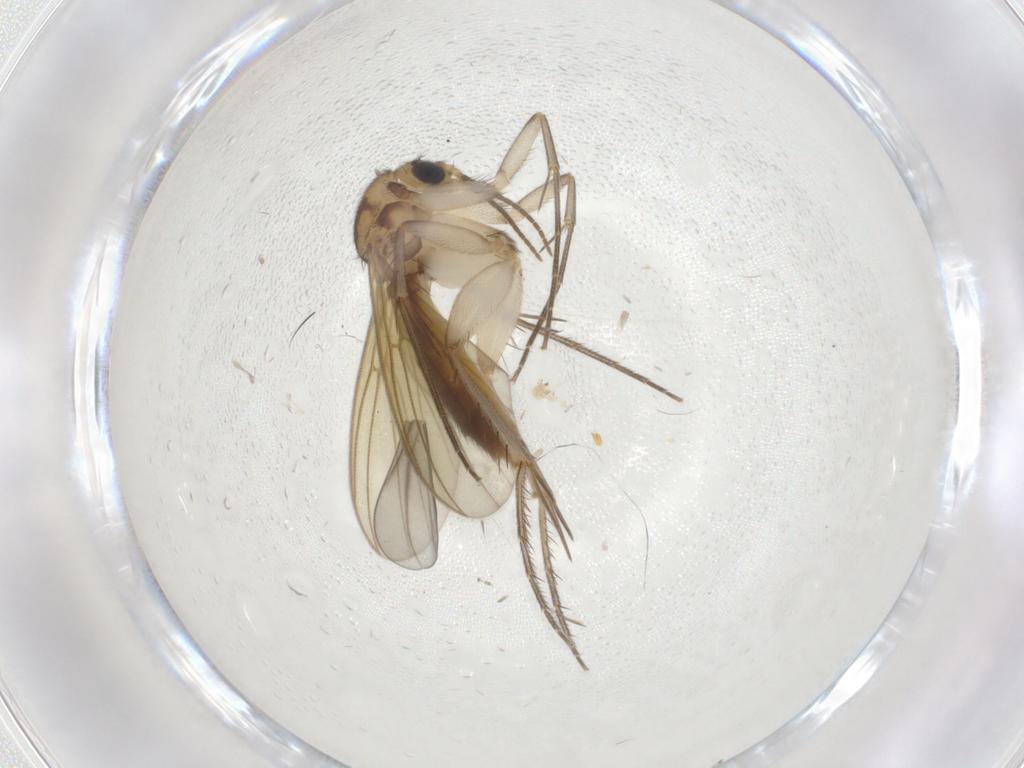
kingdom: Animalia
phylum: Arthropoda
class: Insecta
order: Diptera
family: Mycetophilidae
